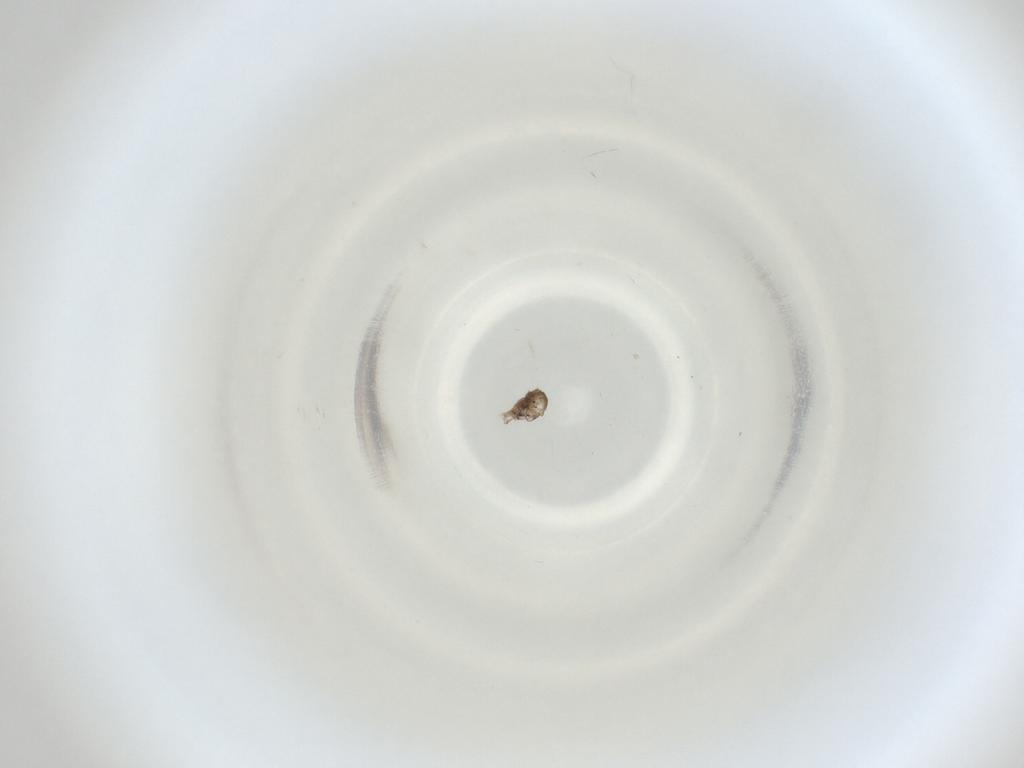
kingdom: Animalia
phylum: Arthropoda
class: Insecta
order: Diptera
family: Cecidomyiidae
